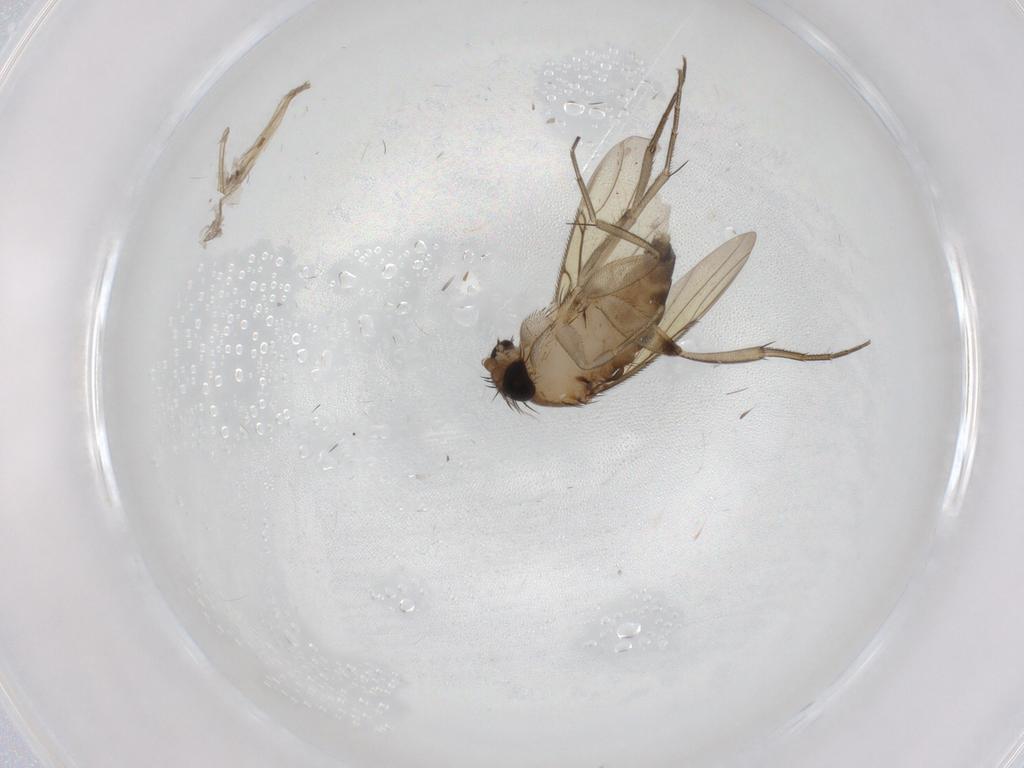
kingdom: Animalia
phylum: Arthropoda
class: Insecta
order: Diptera
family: Phoridae
